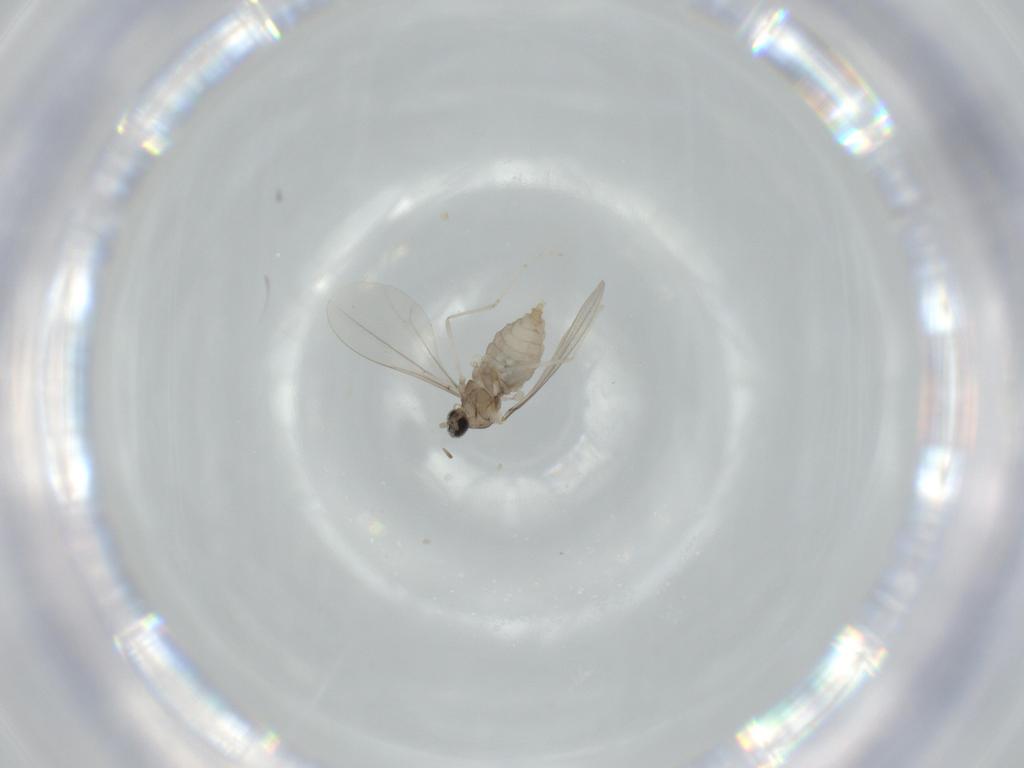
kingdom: Animalia
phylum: Arthropoda
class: Insecta
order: Diptera
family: Cecidomyiidae
